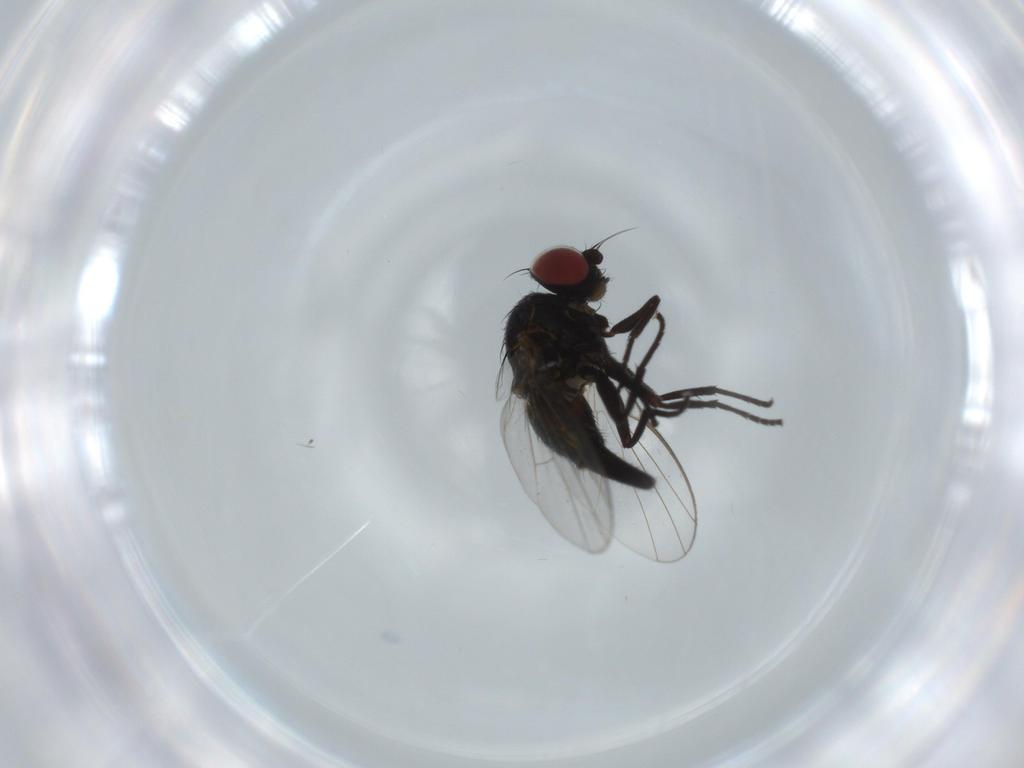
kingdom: Animalia
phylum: Arthropoda
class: Insecta
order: Diptera
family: Agromyzidae
